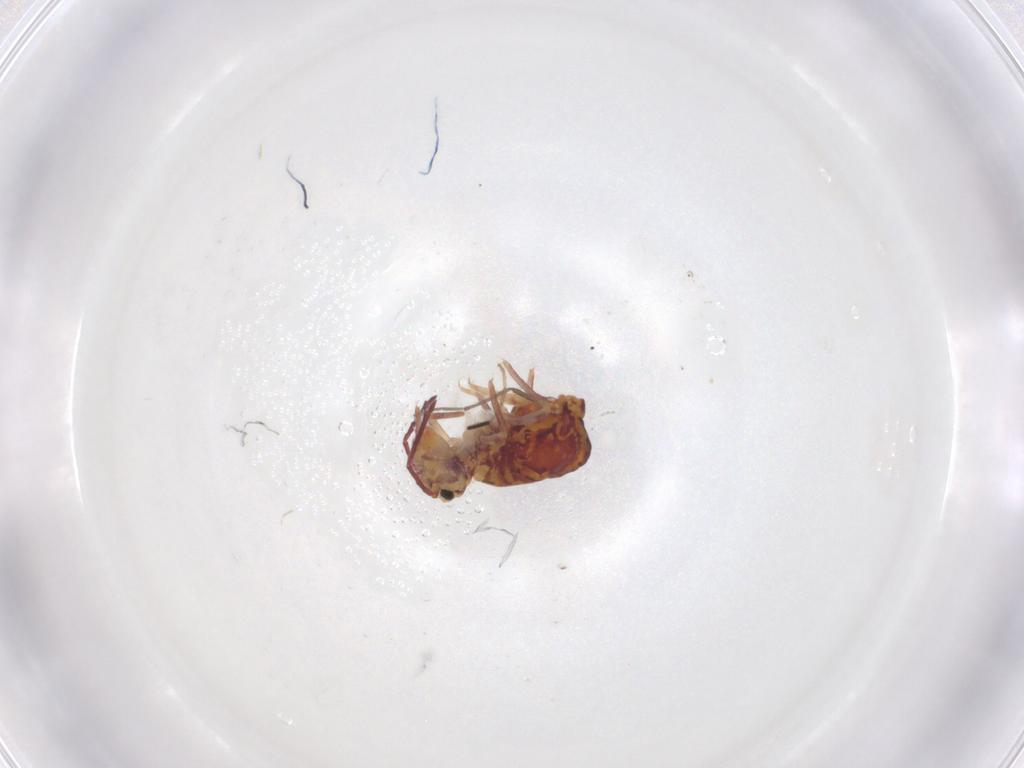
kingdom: Animalia
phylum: Arthropoda
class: Collembola
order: Symphypleona
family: Dicyrtomidae
